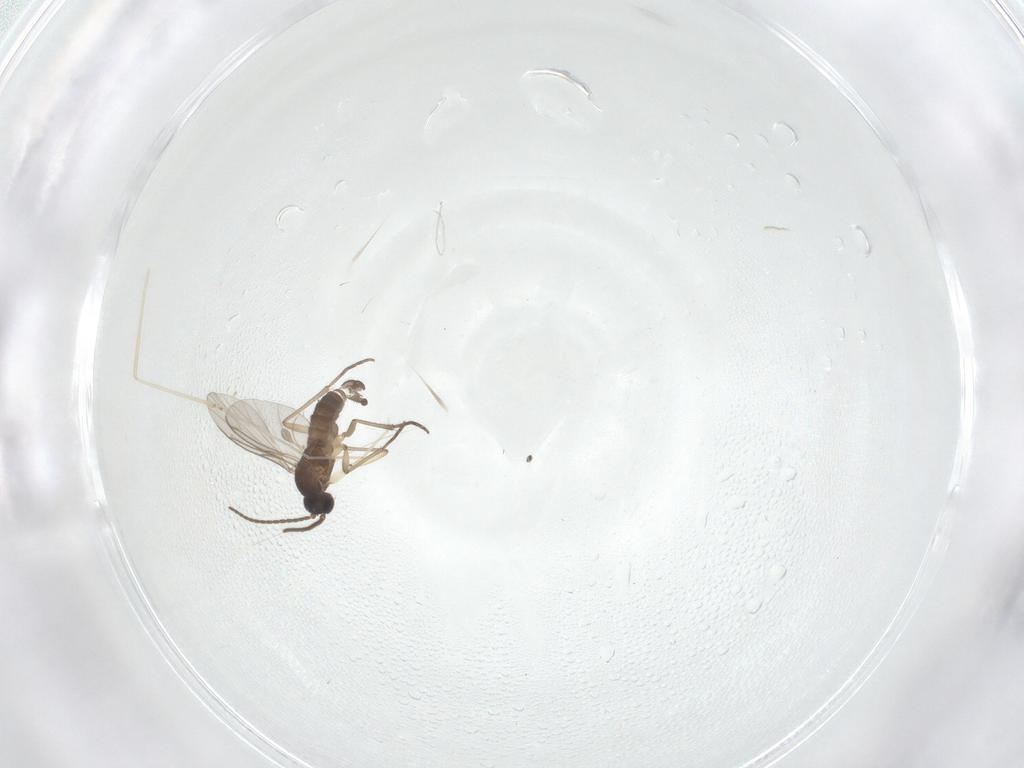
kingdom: Animalia
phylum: Arthropoda
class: Insecta
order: Diptera
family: Sciaridae
